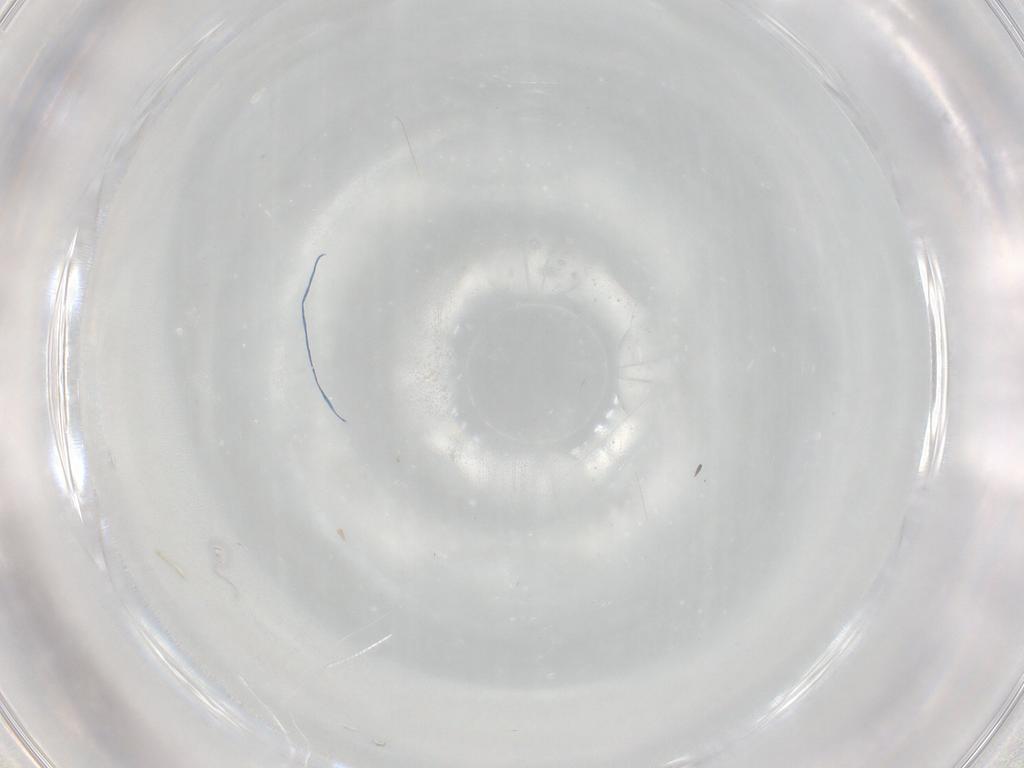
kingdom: Animalia
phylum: Arthropoda
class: Insecta
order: Diptera
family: Cecidomyiidae
